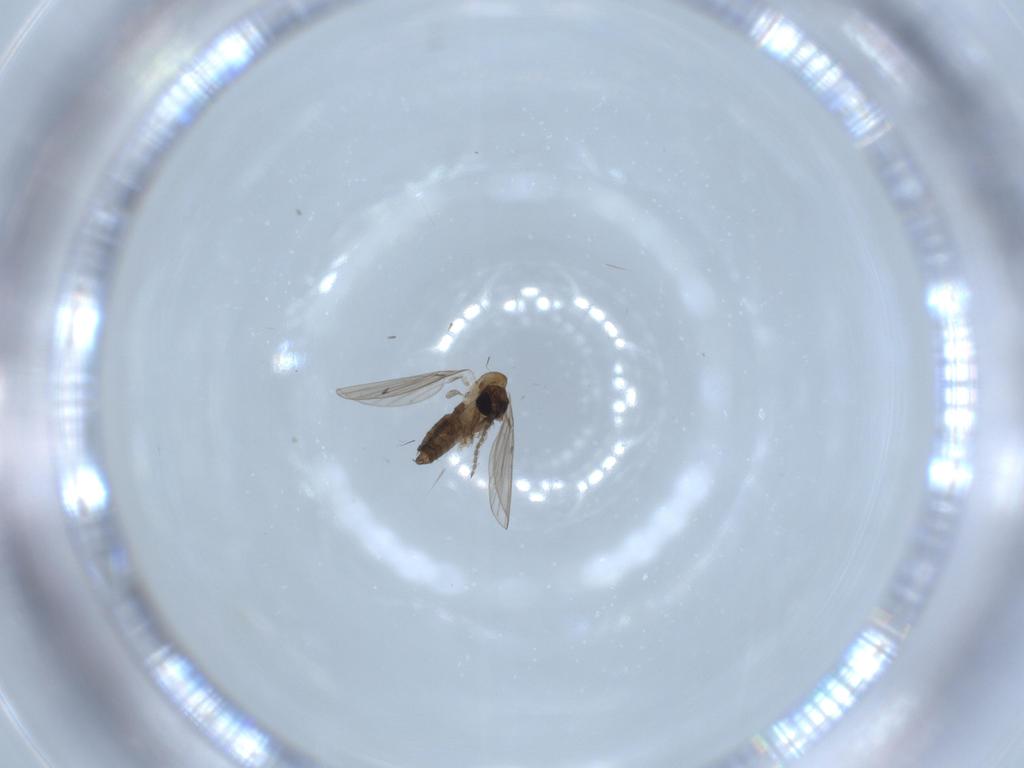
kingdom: Animalia
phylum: Arthropoda
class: Insecta
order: Diptera
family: Psychodidae
